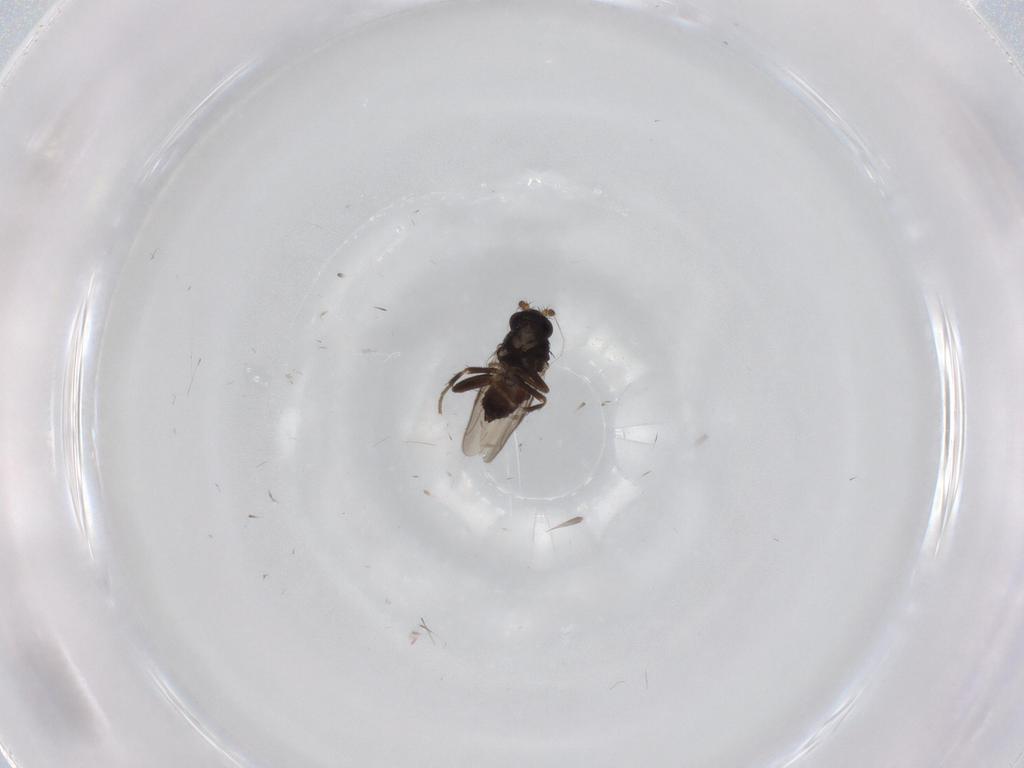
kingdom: Animalia
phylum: Arthropoda
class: Insecta
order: Diptera
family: Sphaeroceridae
